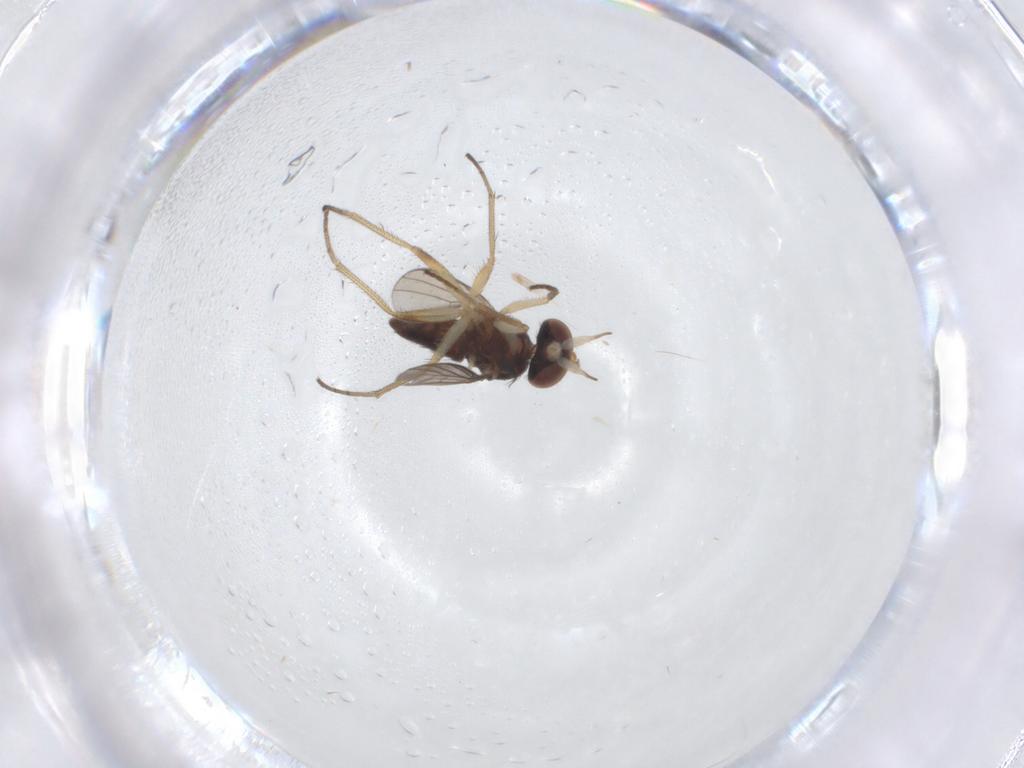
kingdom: Animalia
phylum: Arthropoda
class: Insecta
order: Diptera
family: Dolichopodidae
